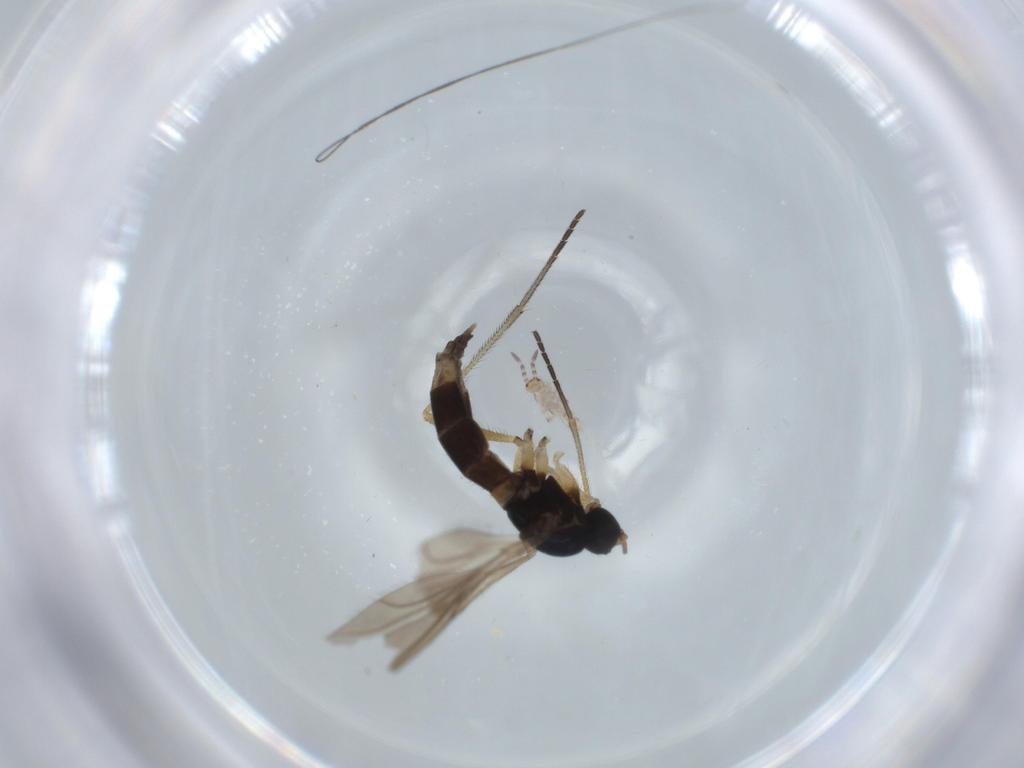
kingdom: Animalia
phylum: Arthropoda
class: Insecta
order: Diptera
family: Sciaridae
